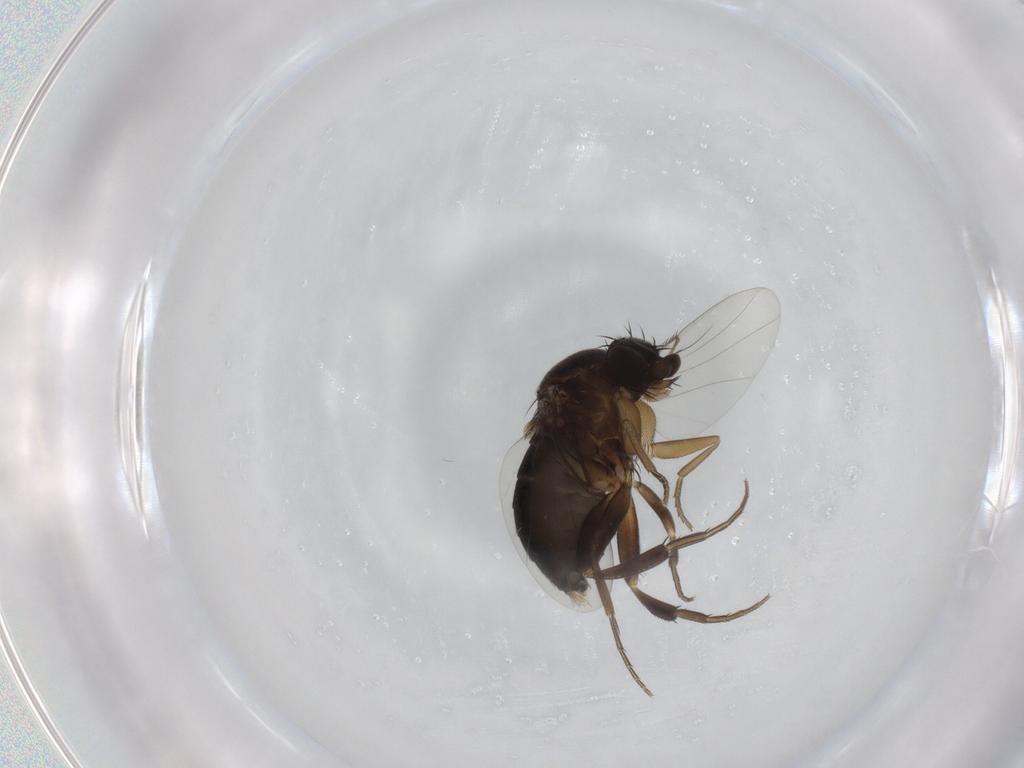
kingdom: Animalia
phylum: Arthropoda
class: Insecta
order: Diptera
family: Phoridae
